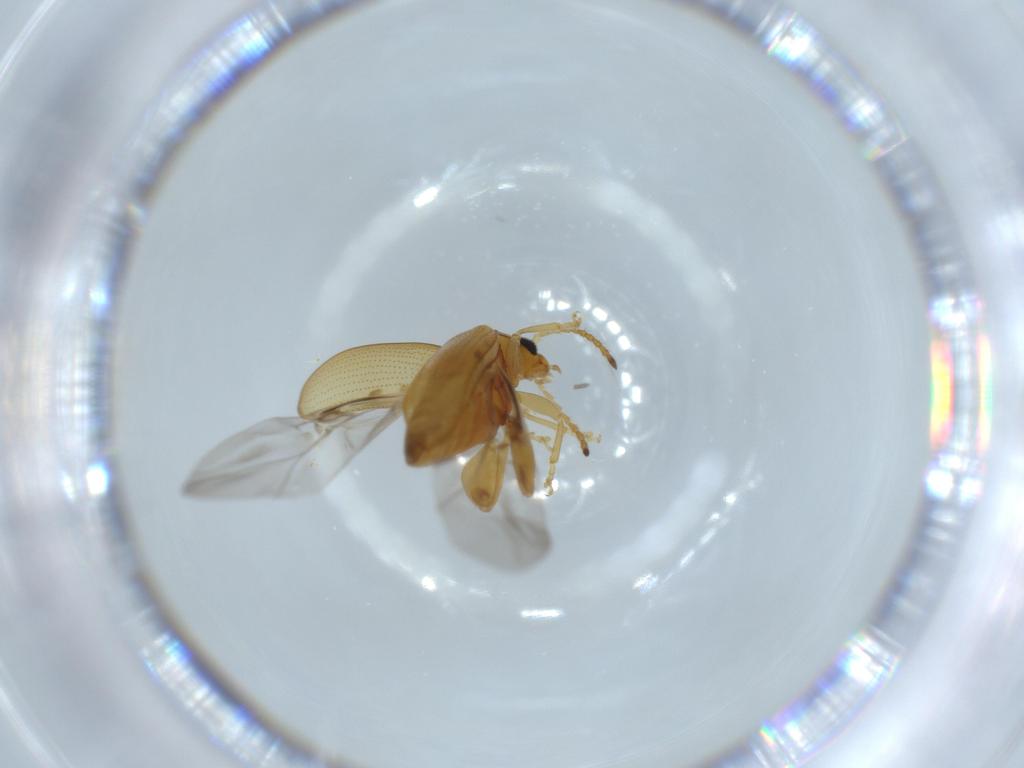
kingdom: Animalia
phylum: Arthropoda
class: Insecta
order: Coleoptera
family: Chrysomelidae
